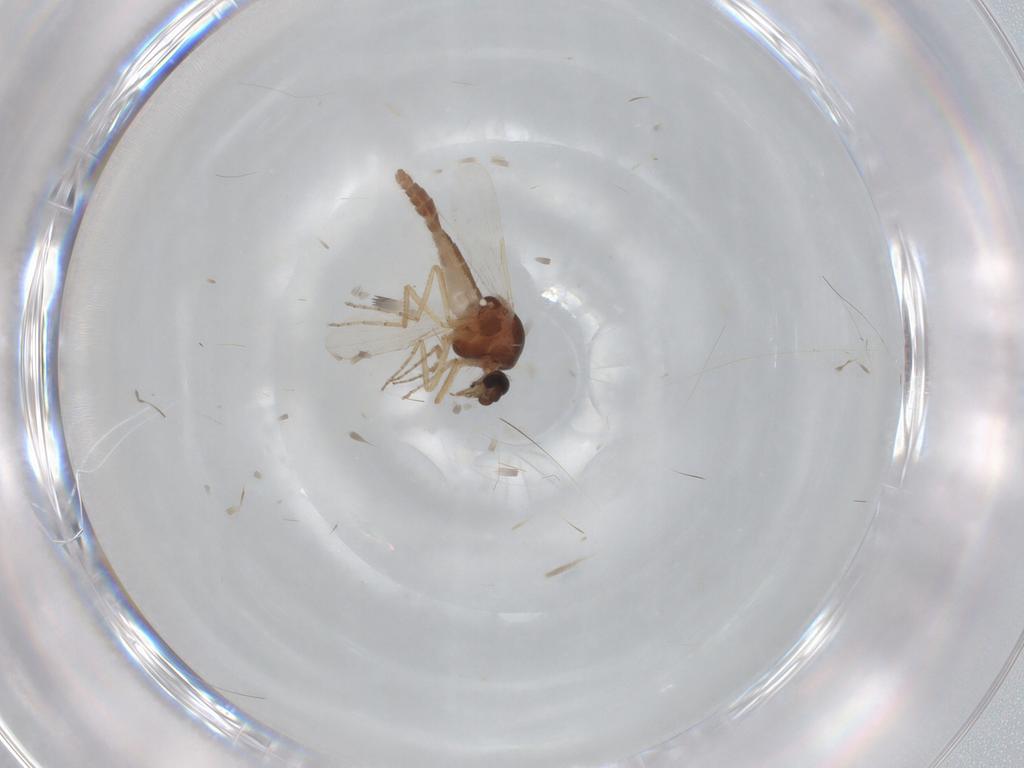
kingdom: Animalia
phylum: Arthropoda
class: Insecta
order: Diptera
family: Ceratopogonidae
